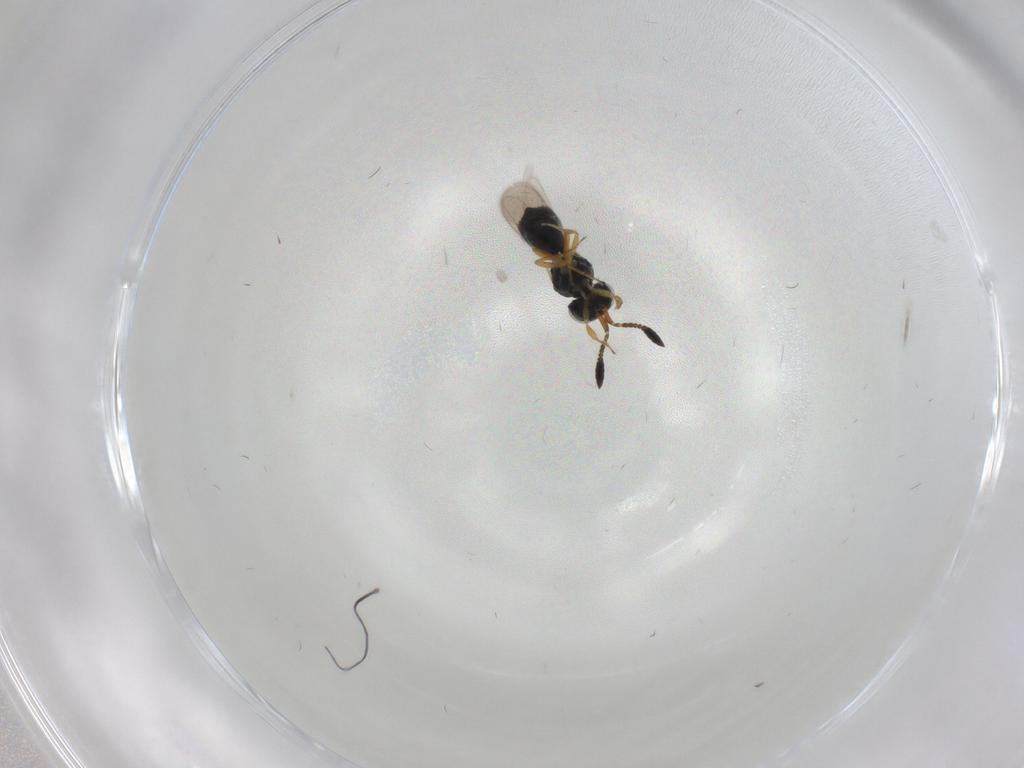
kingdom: Animalia
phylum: Arthropoda
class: Insecta
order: Hymenoptera
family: Scelionidae
